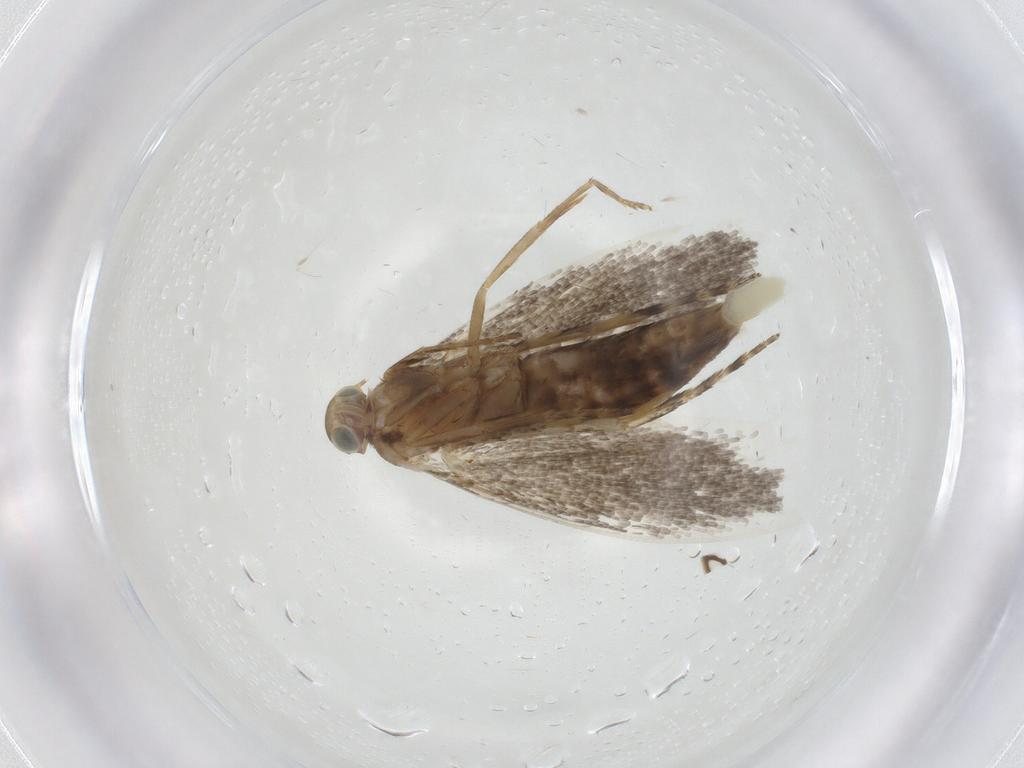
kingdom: Animalia
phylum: Arthropoda
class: Insecta
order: Lepidoptera
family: Glyphipterigidae
